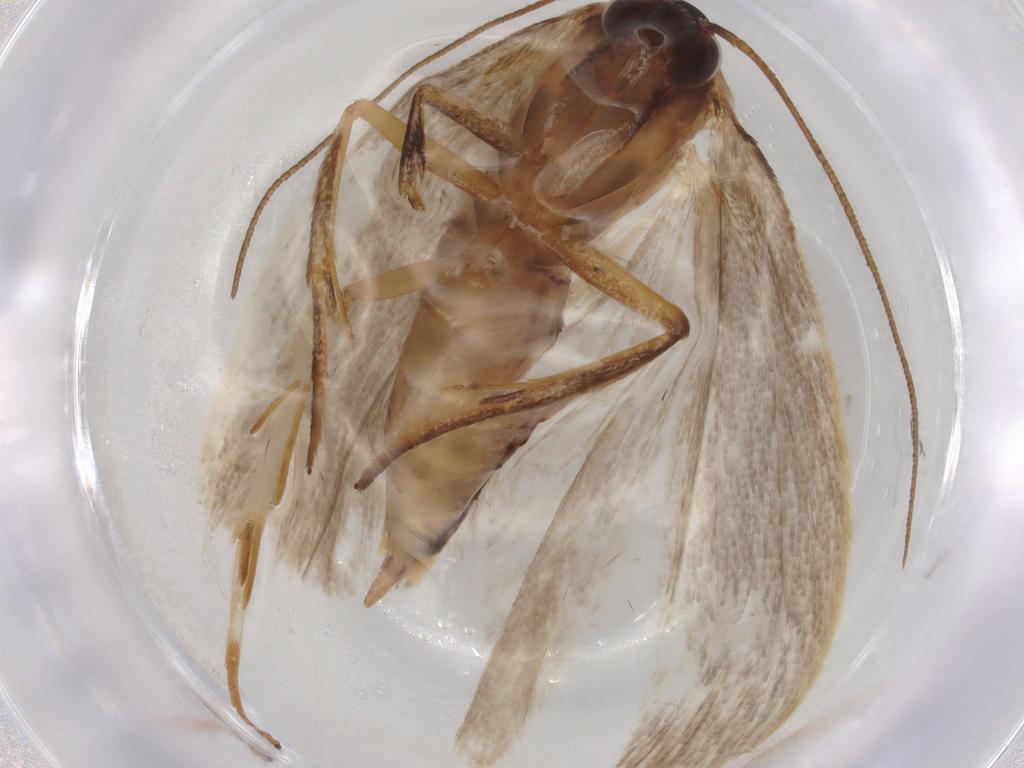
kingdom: Animalia
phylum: Arthropoda
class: Insecta
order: Lepidoptera
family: Xyloryctidae
